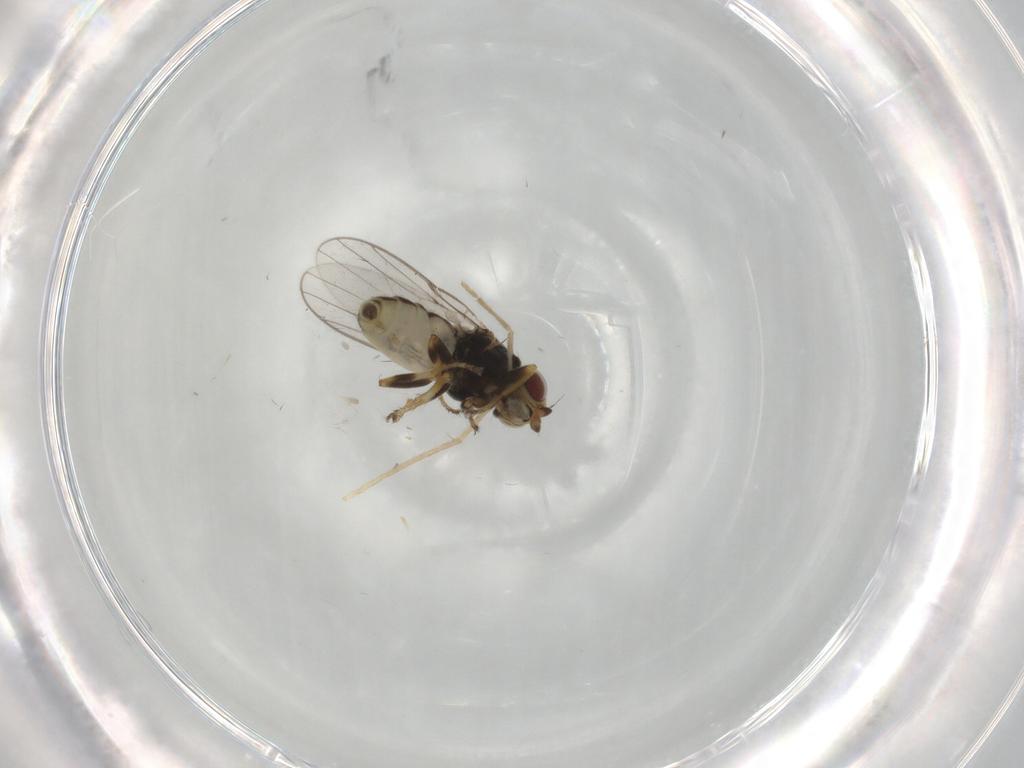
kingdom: Animalia
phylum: Arthropoda
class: Insecta
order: Diptera
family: Chloropidae
